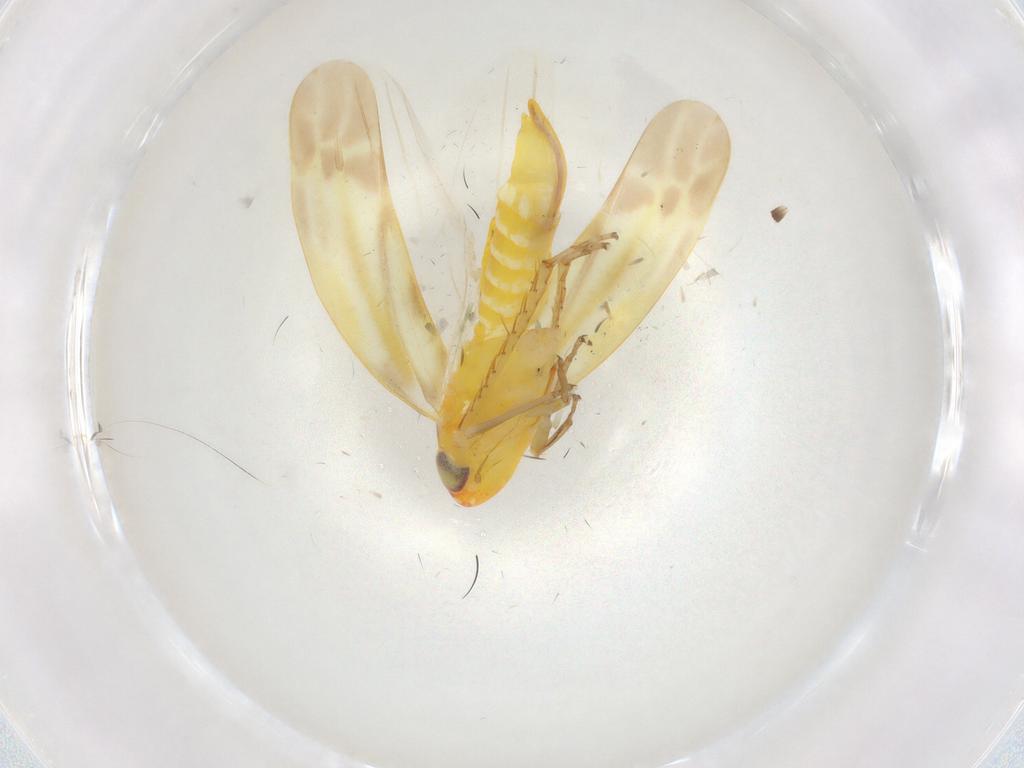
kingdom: Animalia
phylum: Arthropoda
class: Insecta
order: Hemiptera
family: Cicadellidae
